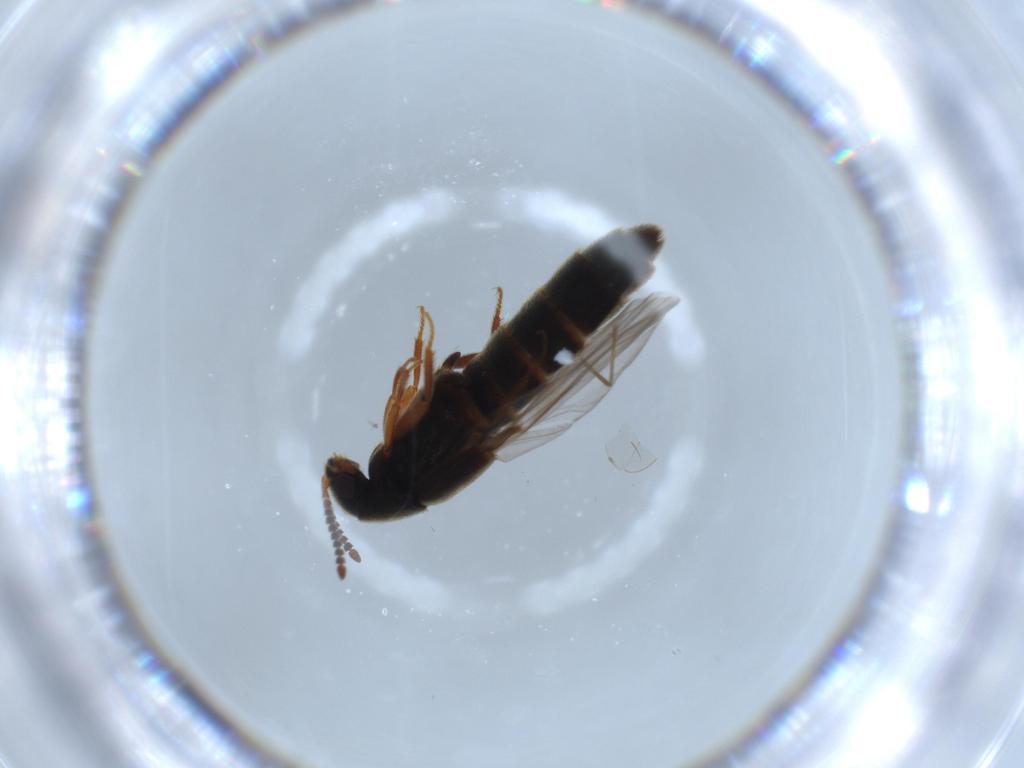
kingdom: Animalia
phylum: Arthropoda
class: Insecta
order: Coleoptera
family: Staphylinidae
